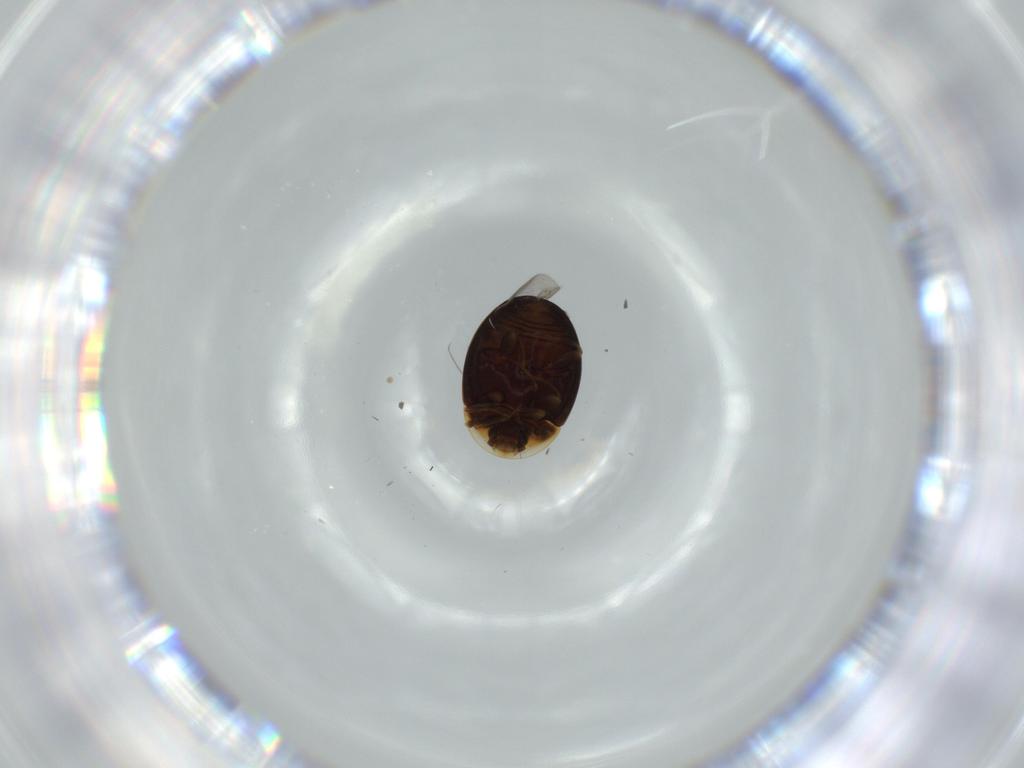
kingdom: Animalia
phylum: Arthropoda
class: Insecta
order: Coleoptera
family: Corylophidae
